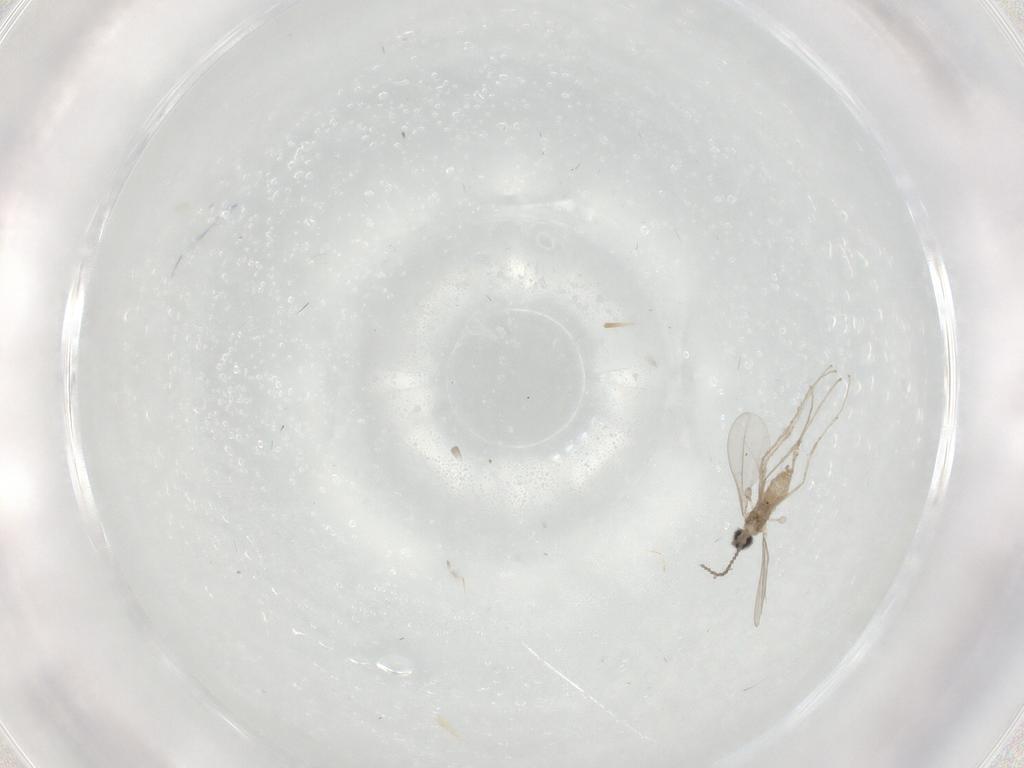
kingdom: Animalia
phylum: Arthropoda
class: Insecta
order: Diptera
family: Cecidomyiidae
